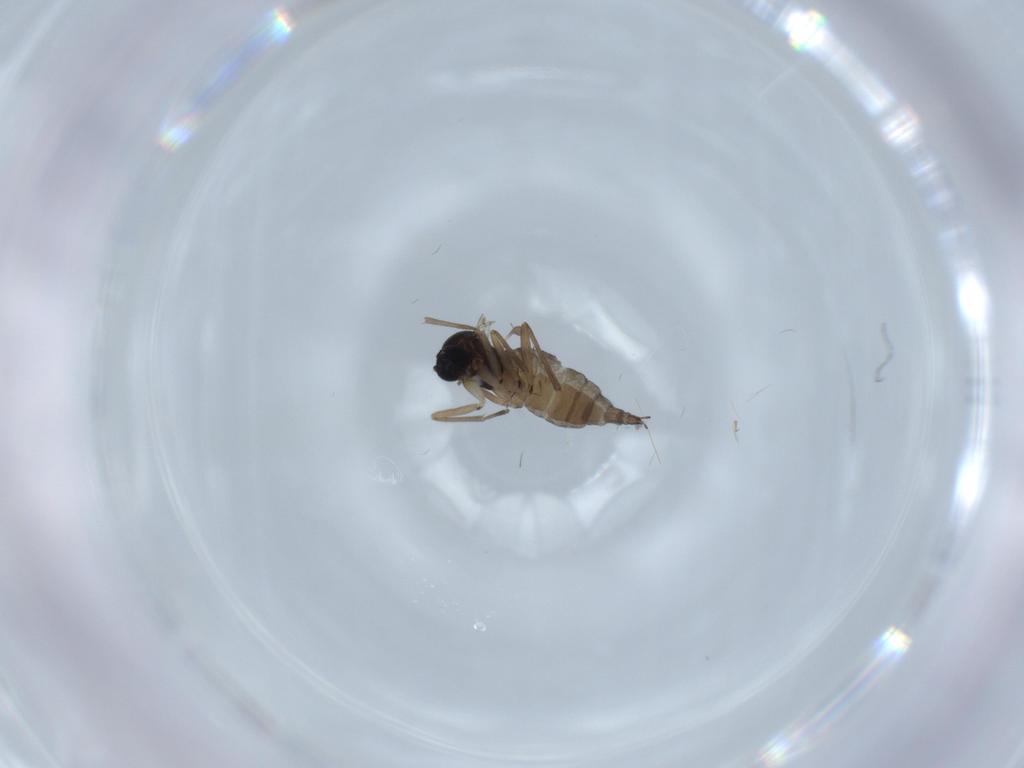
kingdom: Animalia
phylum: Arthropoda
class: Insecta
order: Diptera
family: Sciaridae
